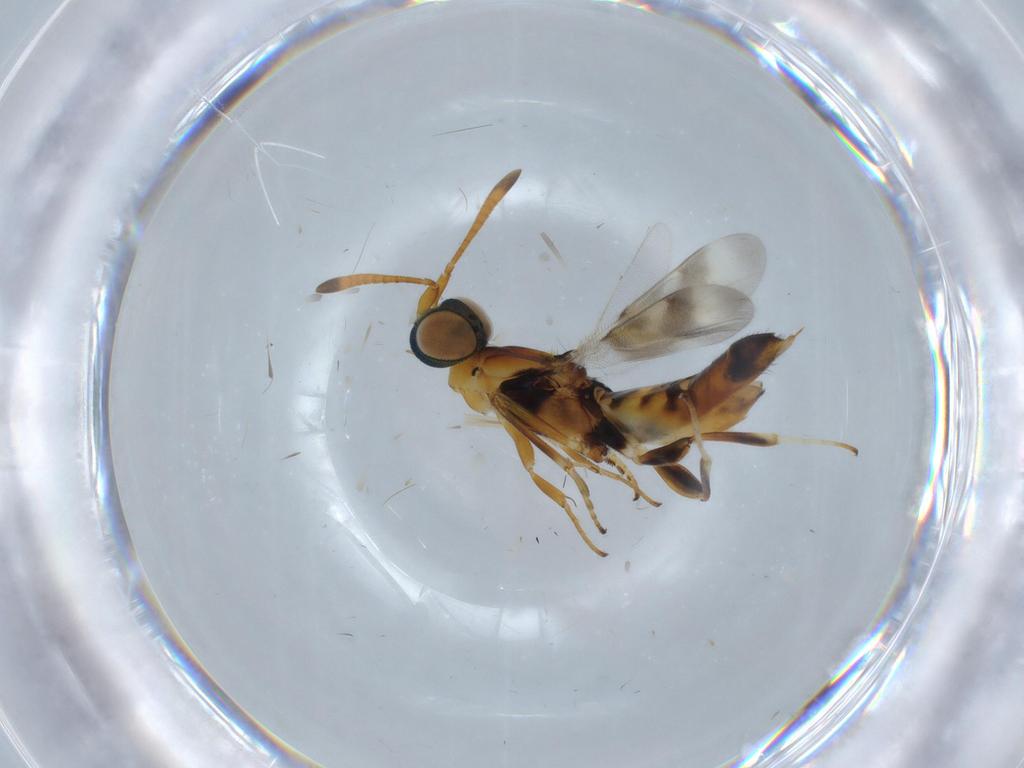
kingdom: Animalia
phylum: Arthropoda
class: Insecta
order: Hymenoptera
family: Eupelmidae
